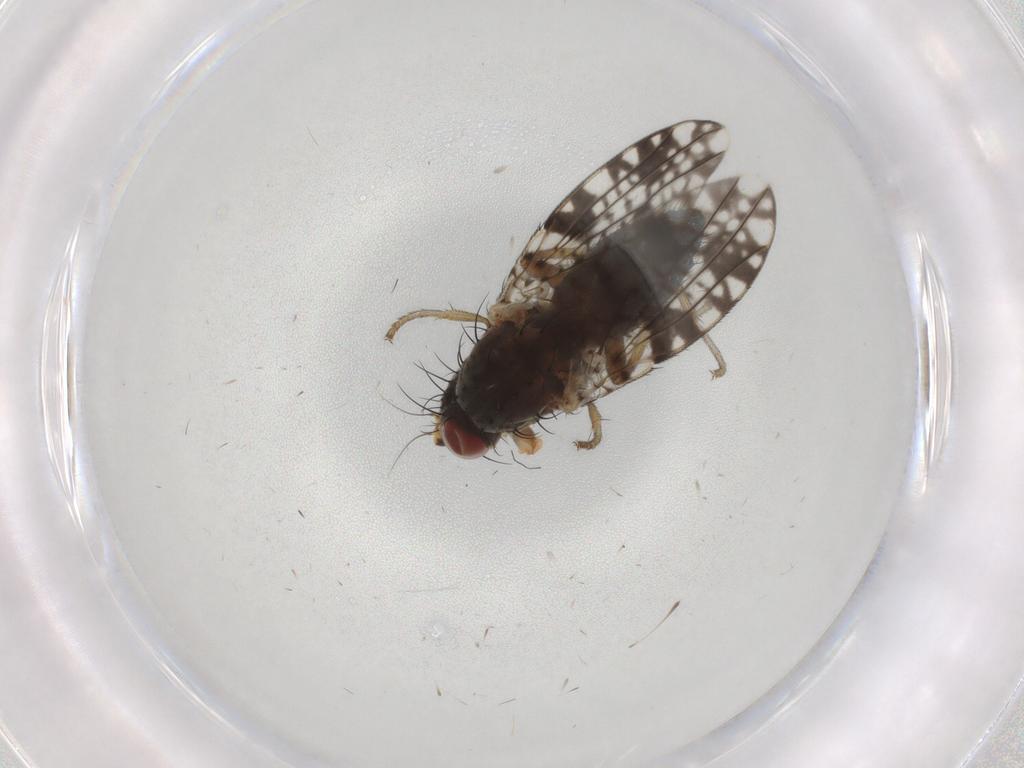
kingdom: Animalia
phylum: Arthropoda
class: Insecta
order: Diptera
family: Tephritidae
